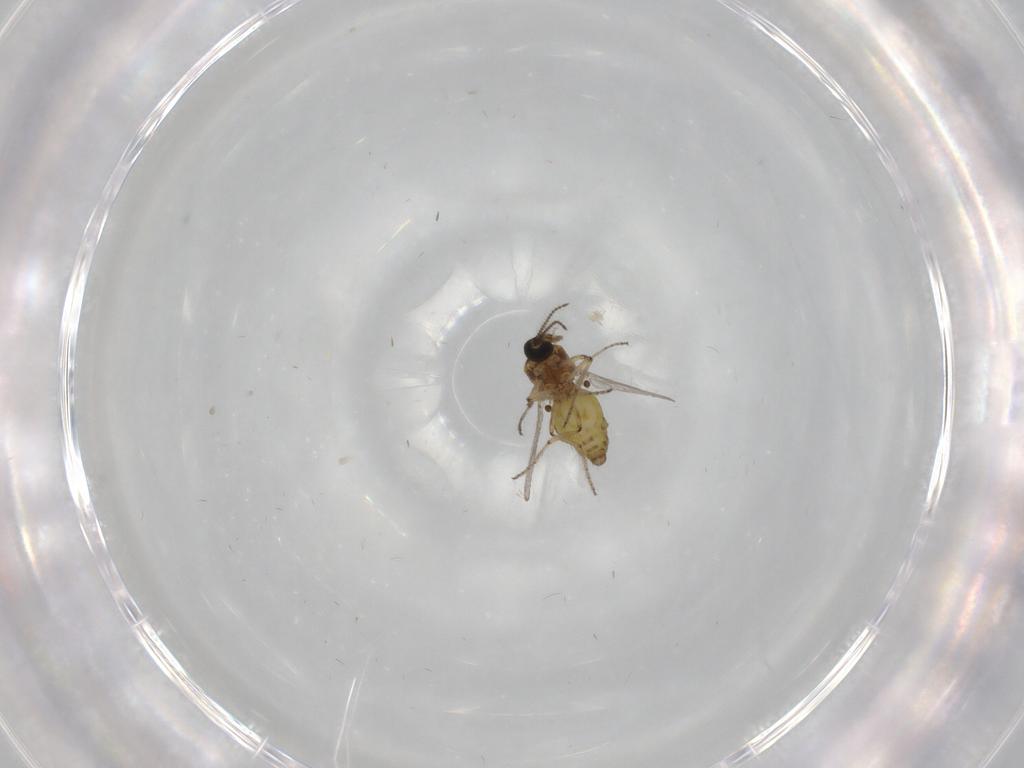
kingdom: Animalia
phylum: Arthropoda
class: Insecta
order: Diptera
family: Ceratopogonidae
